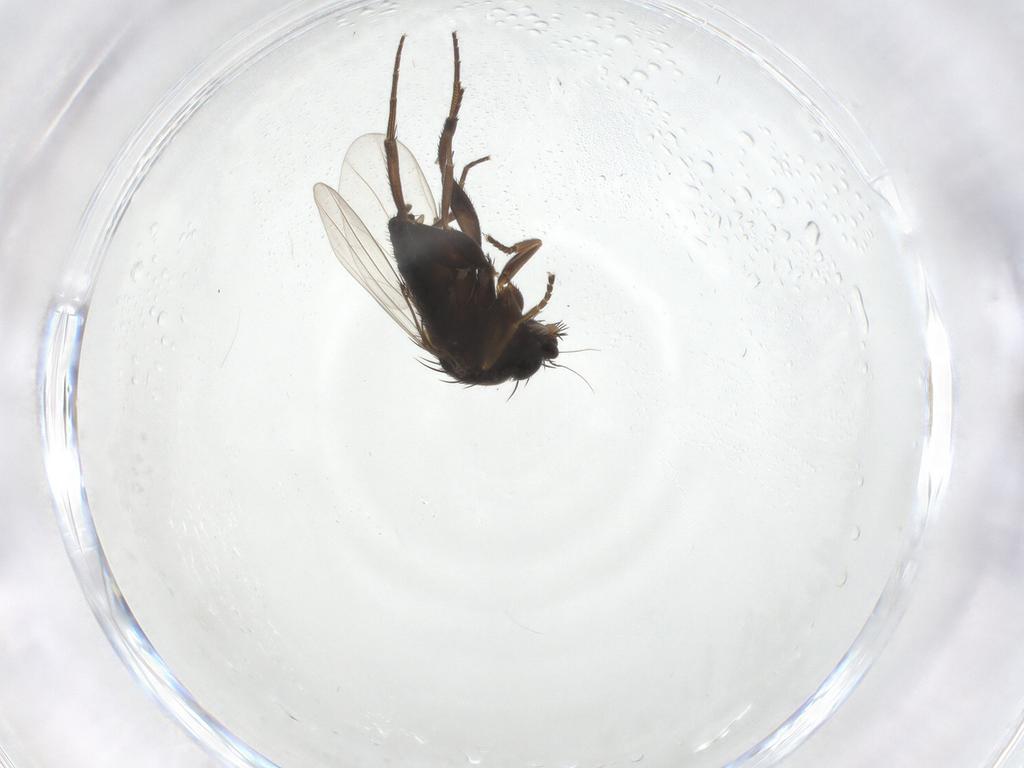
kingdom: Animalia
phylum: Arthropoda
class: Insecta
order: Diptera
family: Phoridae
